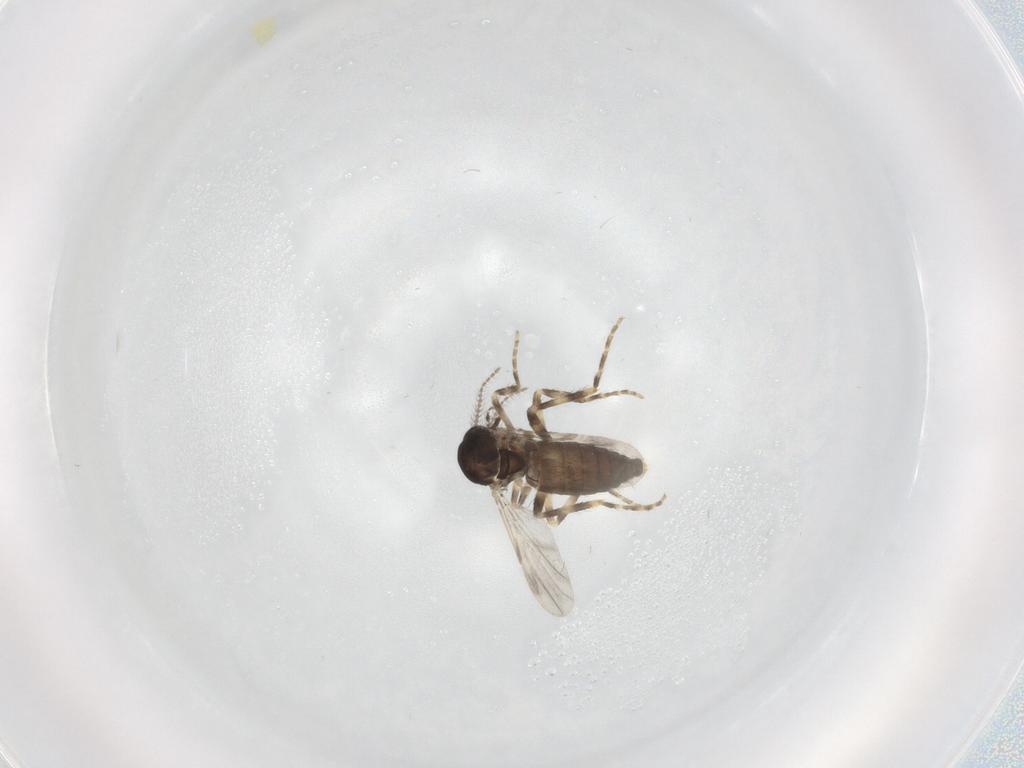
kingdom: Animalia
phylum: Arthropoda
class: Insecta
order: Diptera
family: Ceratopogonidae
